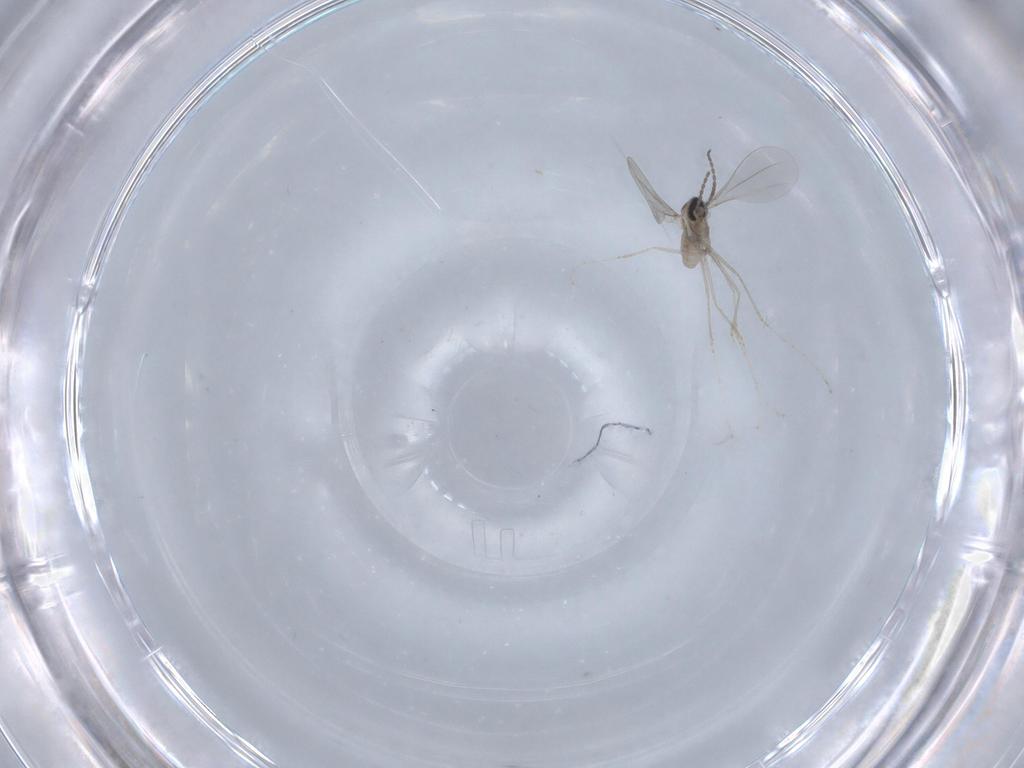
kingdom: Animalia
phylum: Arthropoda
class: Insecta
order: Diptera
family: Cecidomyiidae
